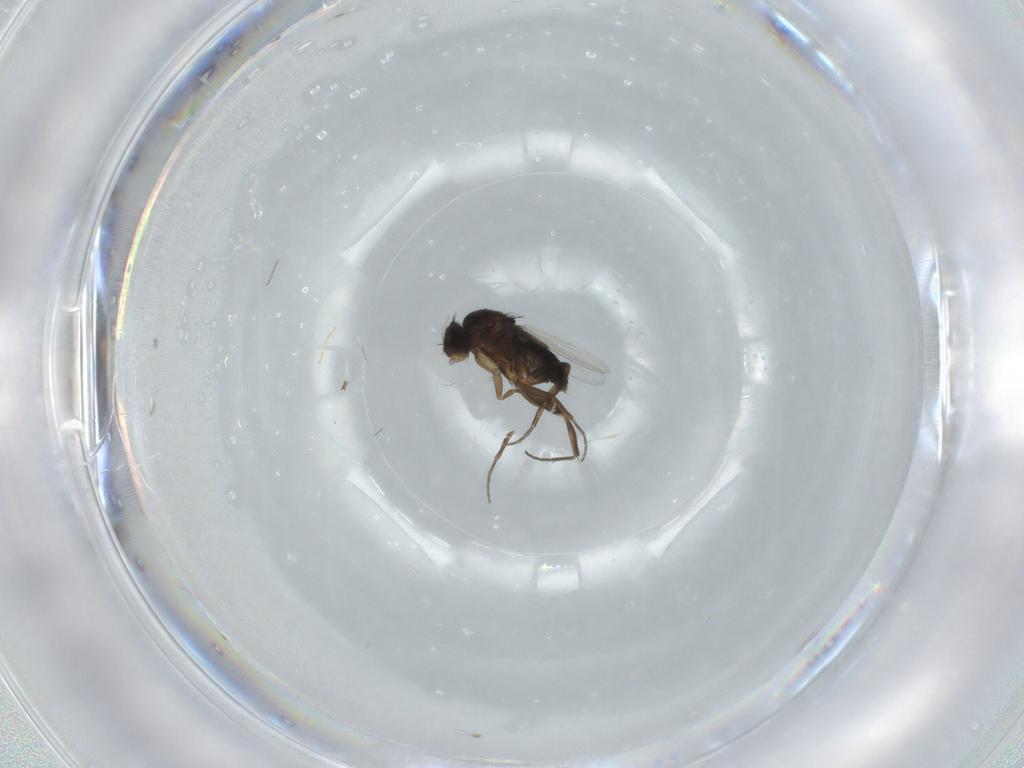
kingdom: Animalia
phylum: Arthropoda
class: Insecta
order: Diptera
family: Phoridae
